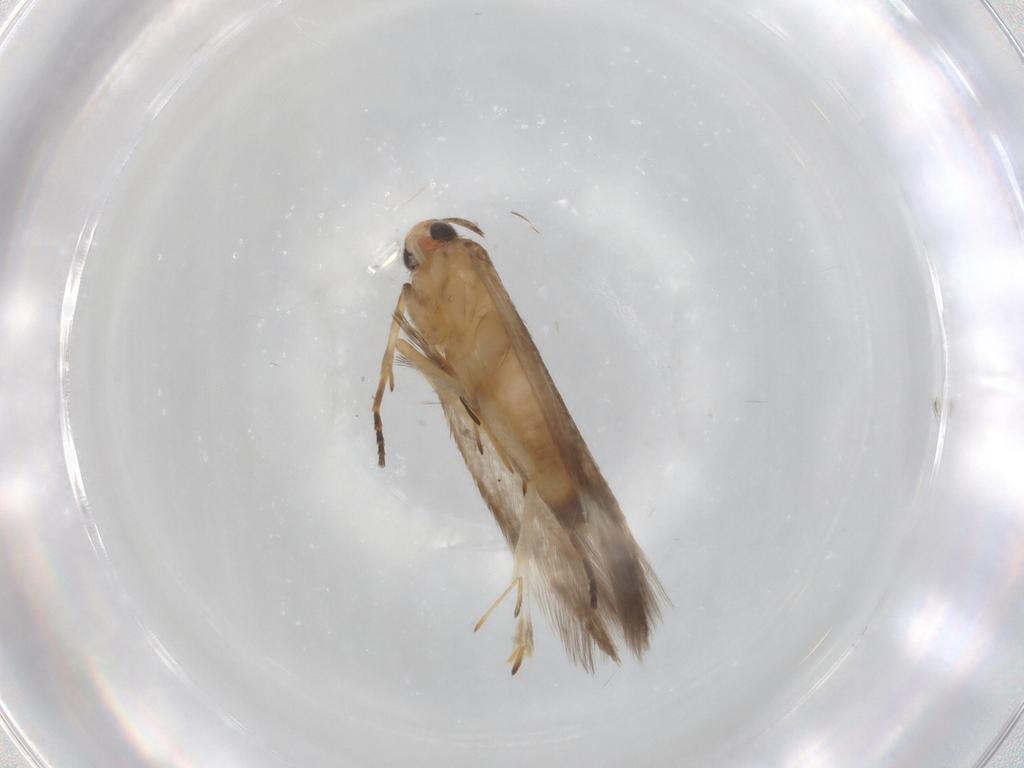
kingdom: Animalia
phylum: Arthropoda
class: Insecta
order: Lepidoptera
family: Gelechiidae
